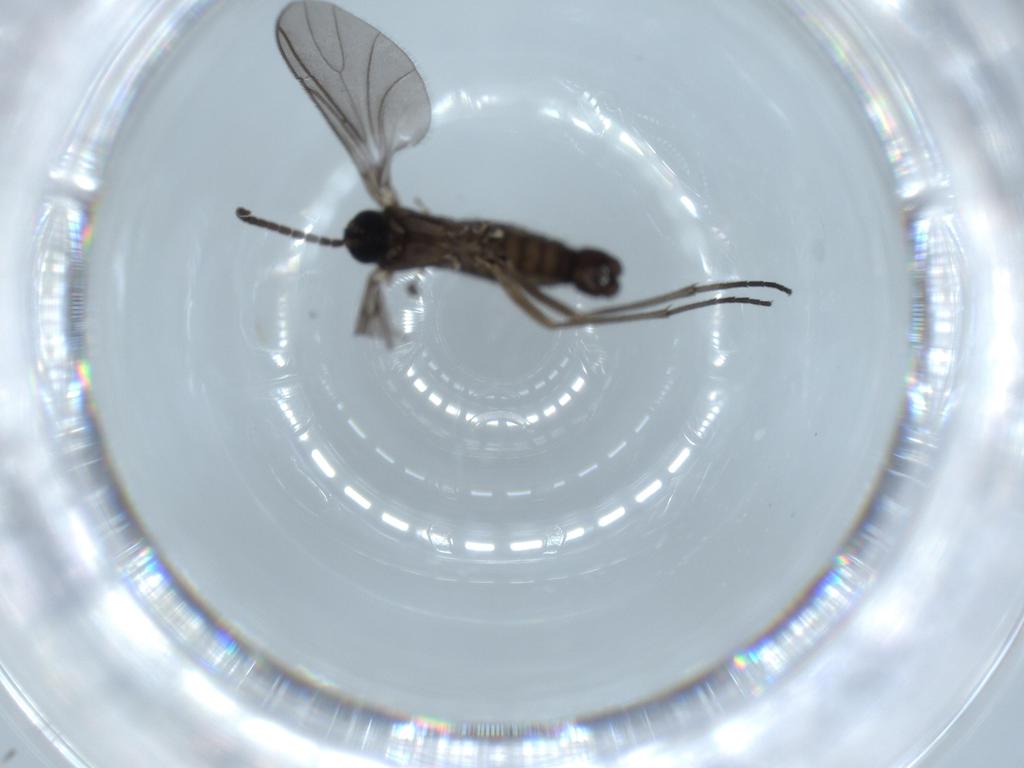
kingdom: Animalia
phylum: Arthropoda
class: Insecta
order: Diptera
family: Sciaridae
